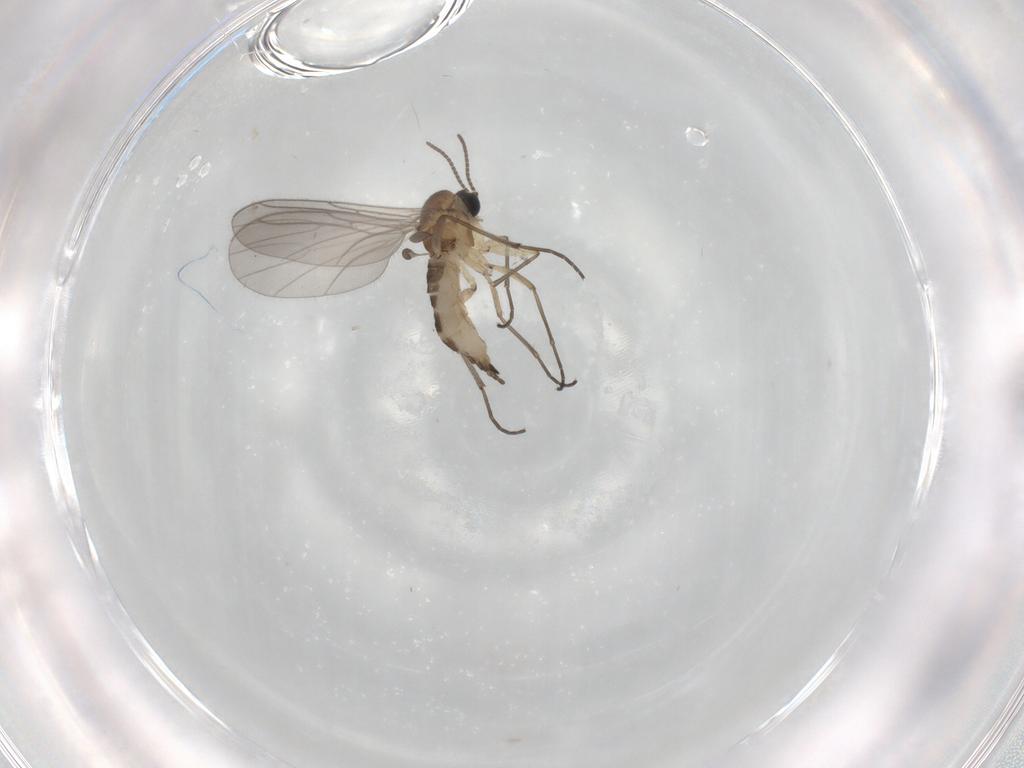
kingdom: Animalia
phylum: Arthropoda
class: Insecta
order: Diptera
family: Sciaridae
